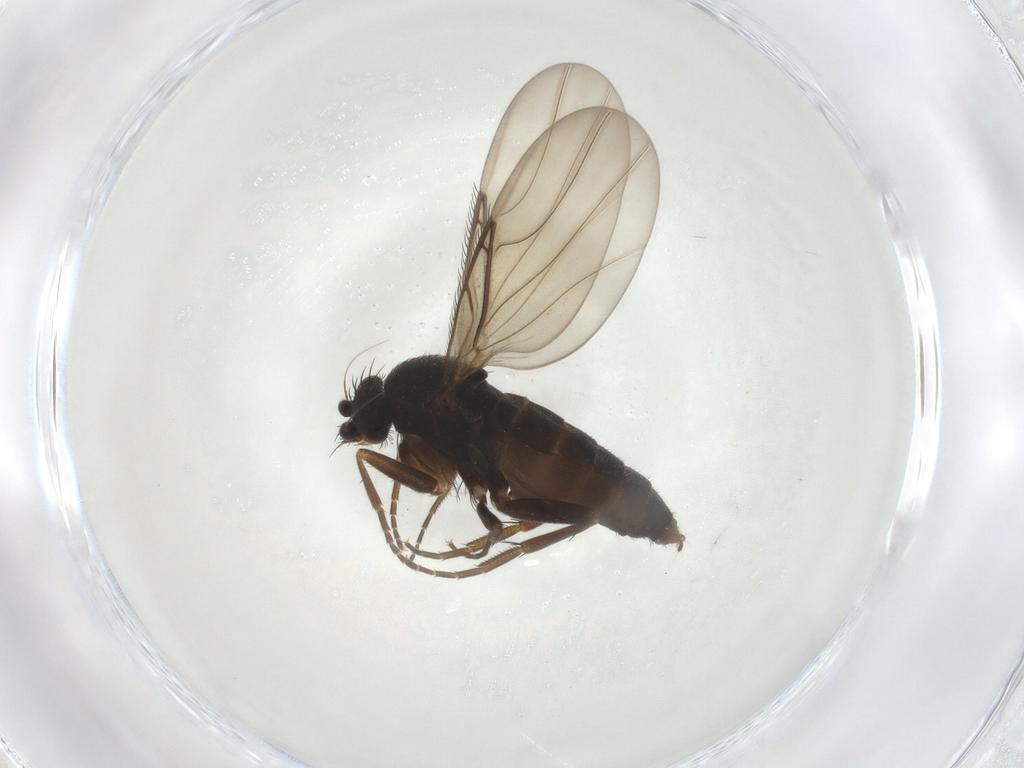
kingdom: Animalia
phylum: Arthropoda
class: Insecta
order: Diptera
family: Phoridae
